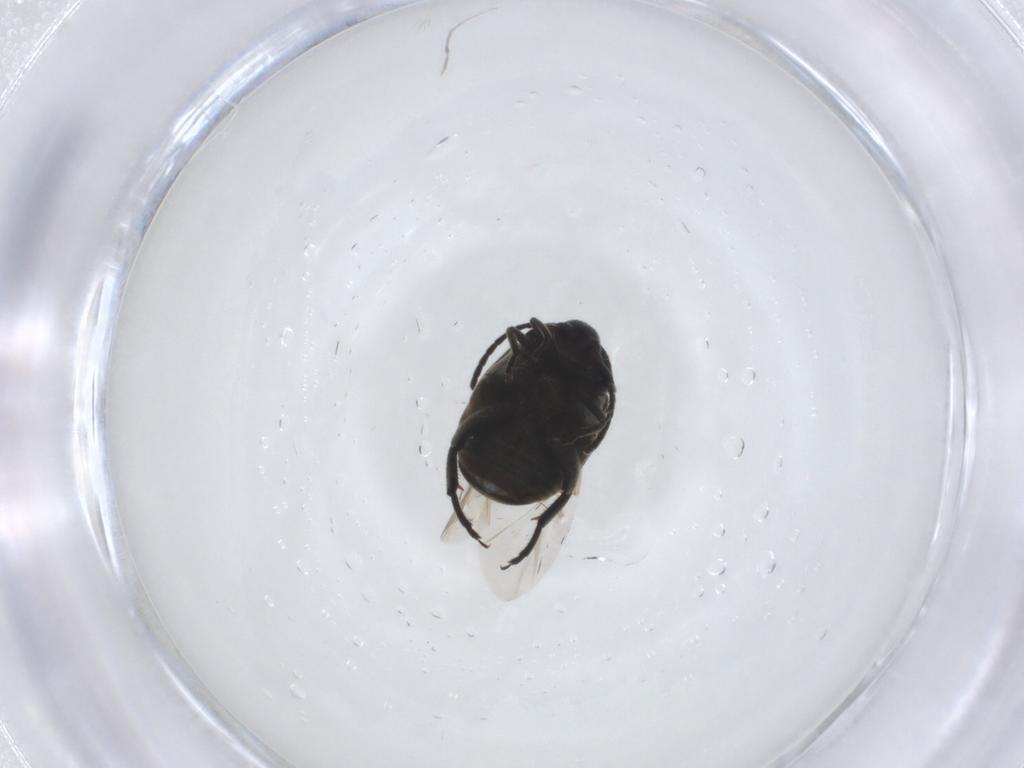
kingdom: Animalia
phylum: Arthropoda
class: Insecta
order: Coleoptera
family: Chrysomelidae
